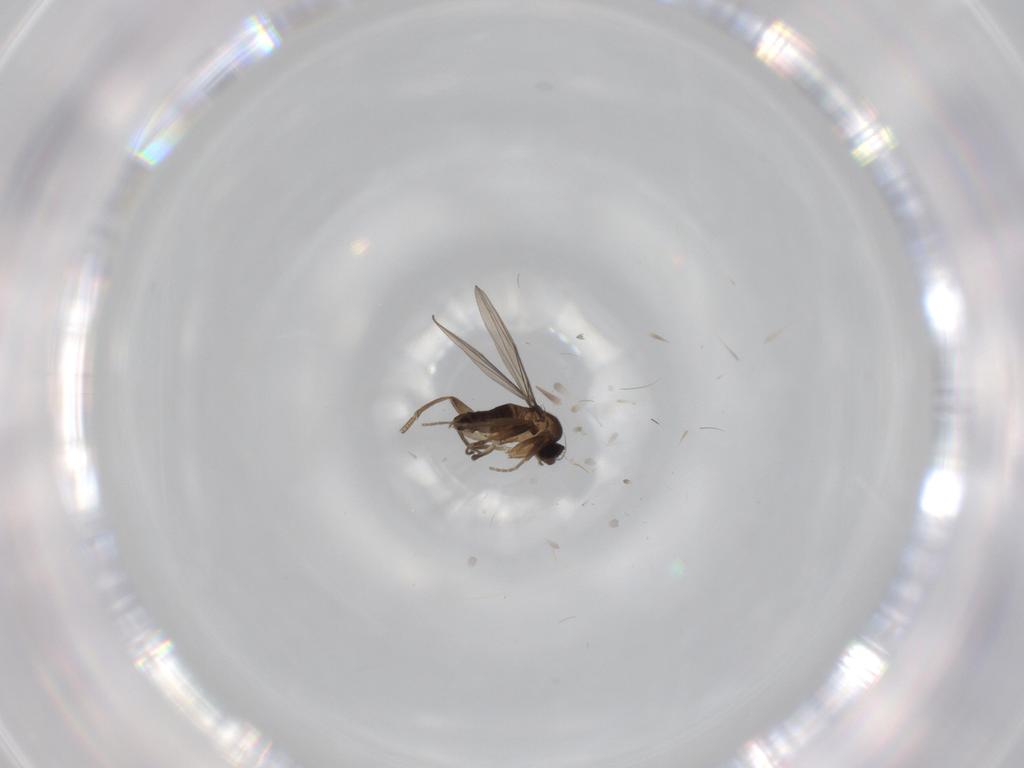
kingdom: Animalia
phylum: Arthropoda
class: Insecta
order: Diptera
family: Phoridae
